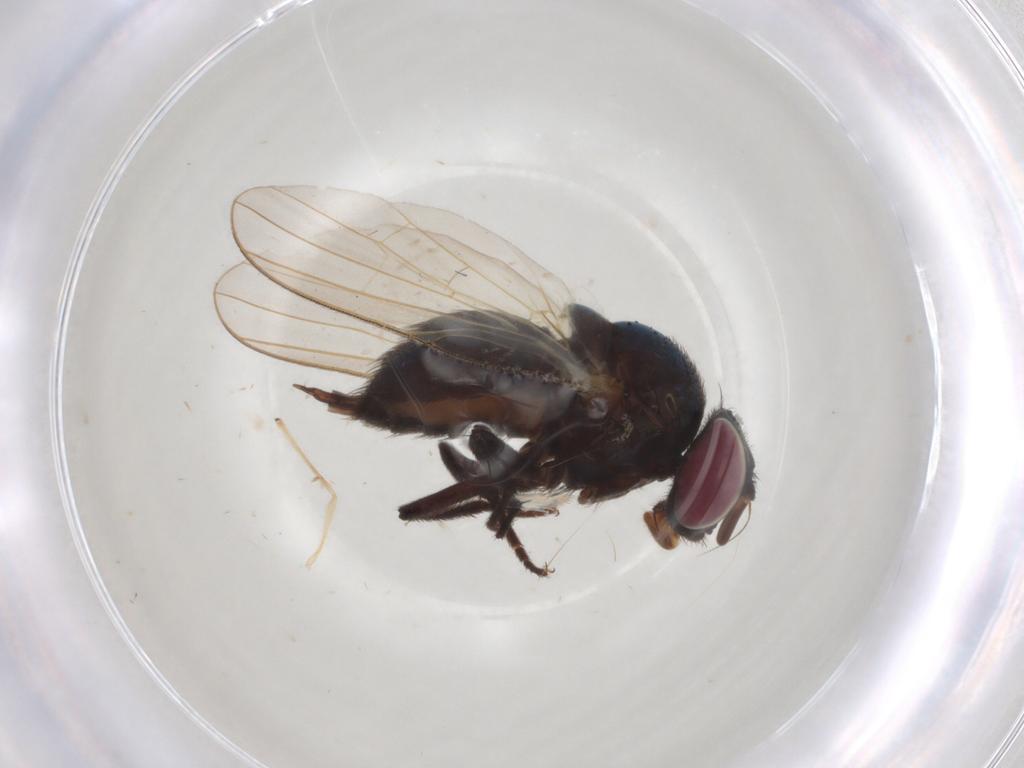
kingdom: Animalia
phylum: Arthropoda
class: Insecta
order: Diptera
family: Lonchaeidae
